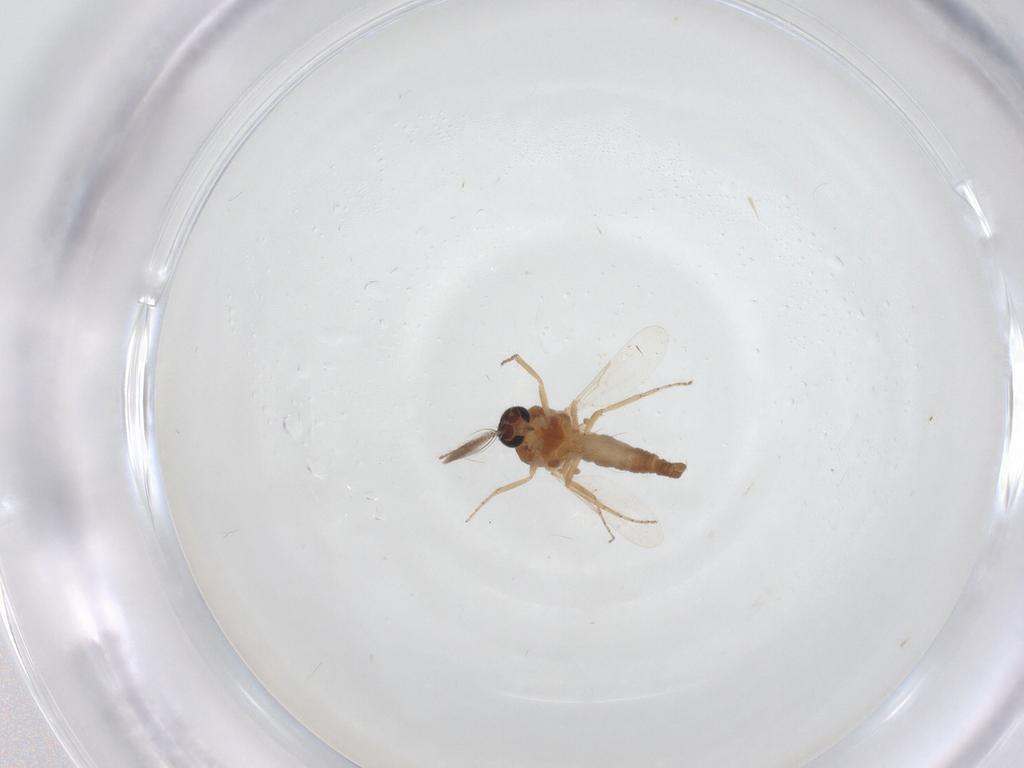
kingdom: Animalia
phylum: Arthropoda
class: Insecta
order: Diptera
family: Ceratopogonidae
